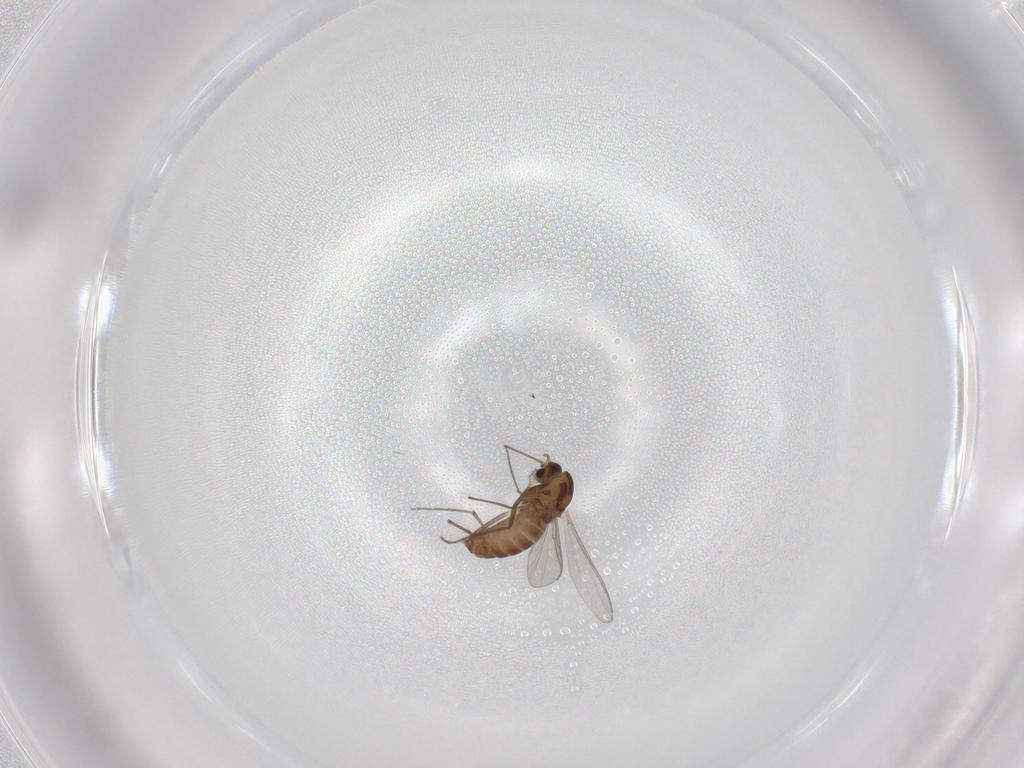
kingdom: Animalia
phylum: Arthropoda
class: Insecta
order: Diptera
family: Chironomidae
